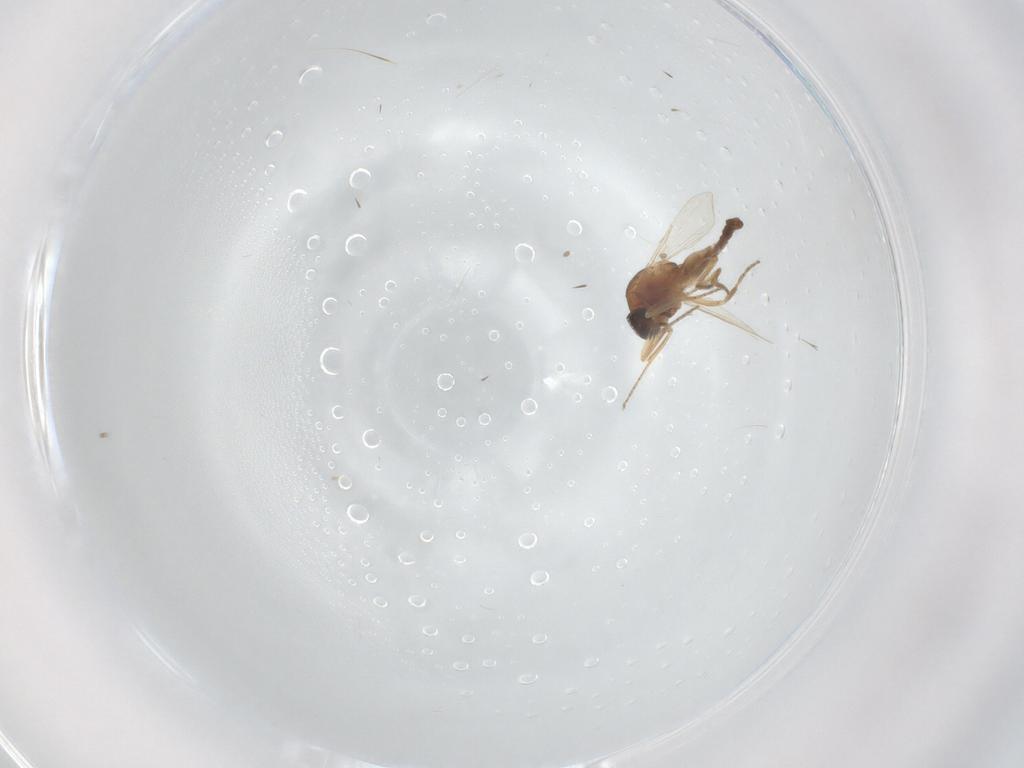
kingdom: Animalia
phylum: Arthropoda
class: Insecta
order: Diptera
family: Ceratopogonidae
